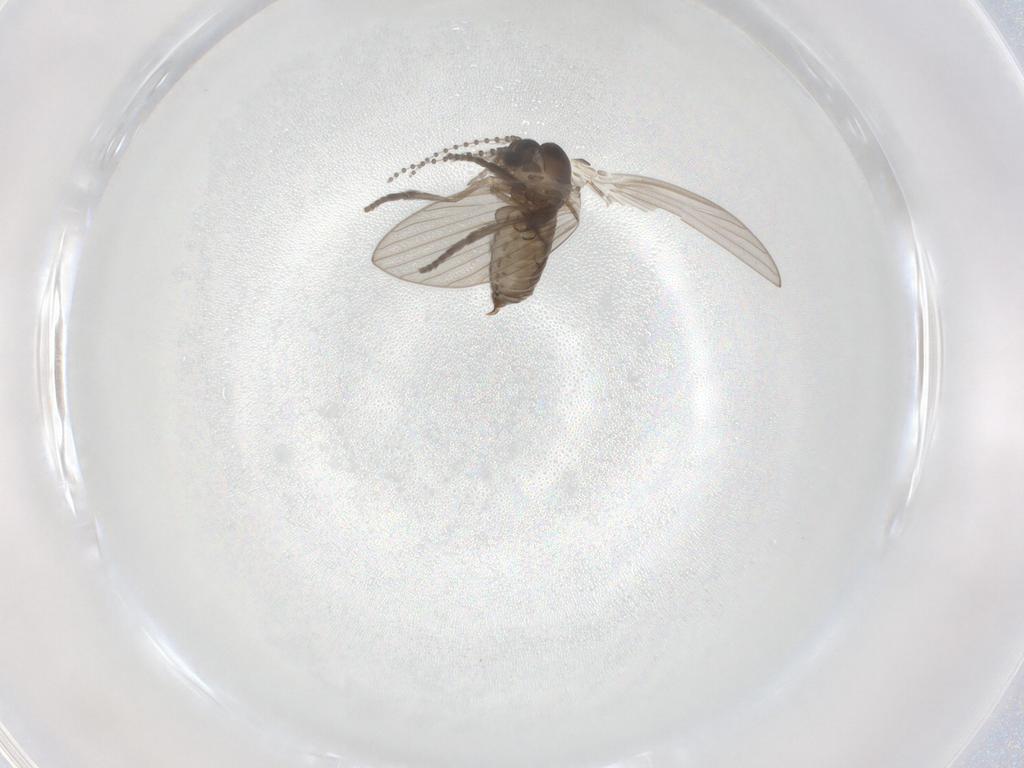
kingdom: Animalia
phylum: Arthropoda
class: Insecta
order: Diptera
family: Psychodidae
